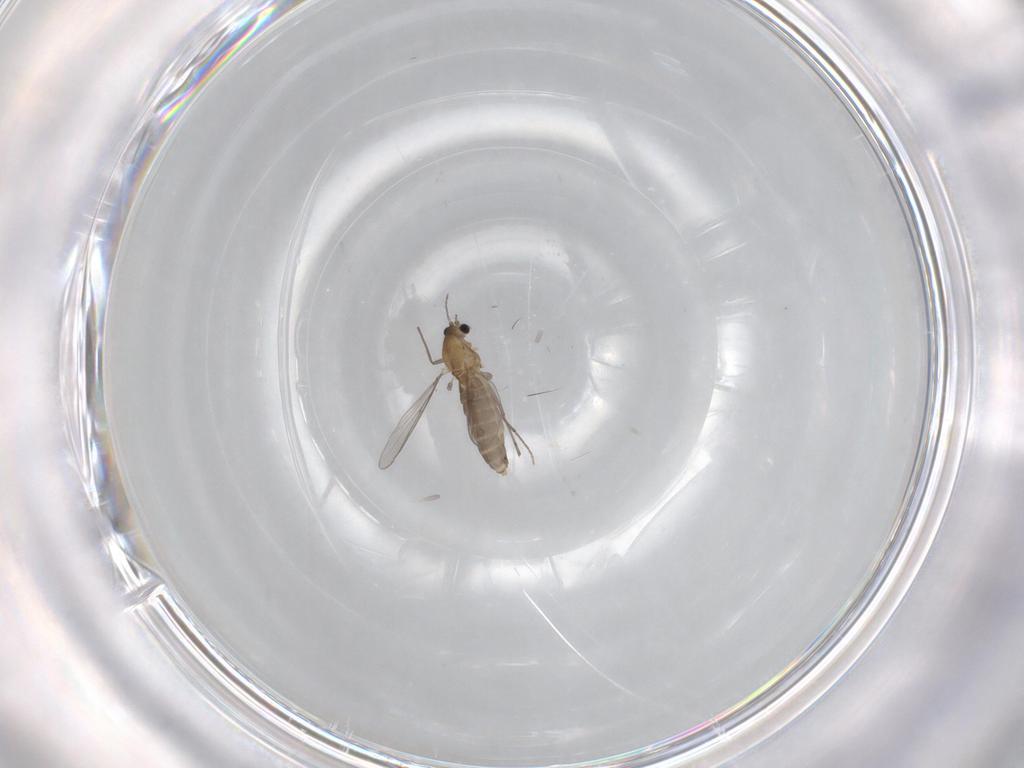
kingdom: Animalia
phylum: Arthropoda
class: Insecta
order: Diptera
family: Chironomidae
